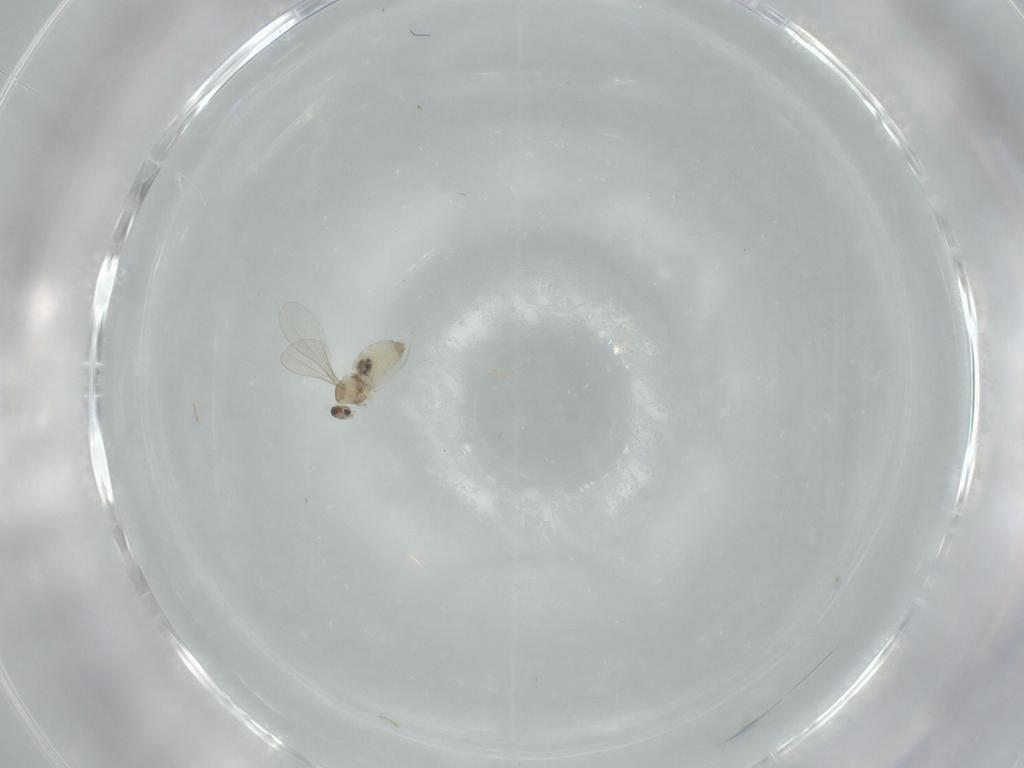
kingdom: Animalia
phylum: Arthropoda
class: Insecta
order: Diptera
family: Cecidomyiidae
